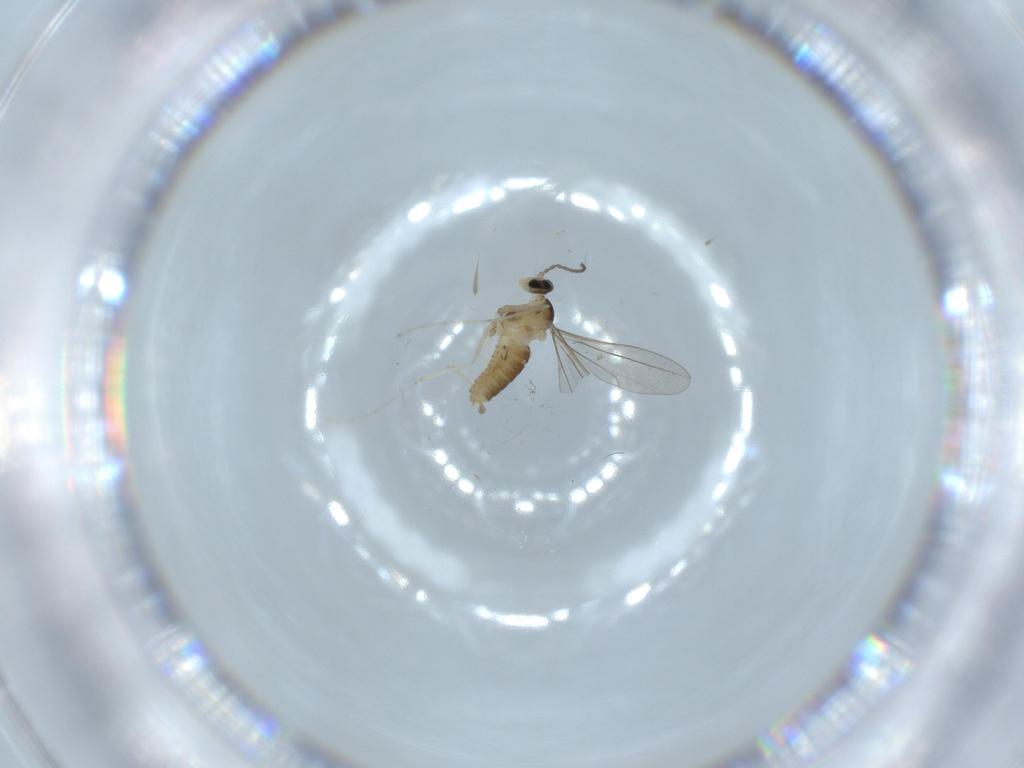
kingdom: Animalia
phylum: Arthropoda
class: Insecta
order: Diptera
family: Cecidomyiidae
